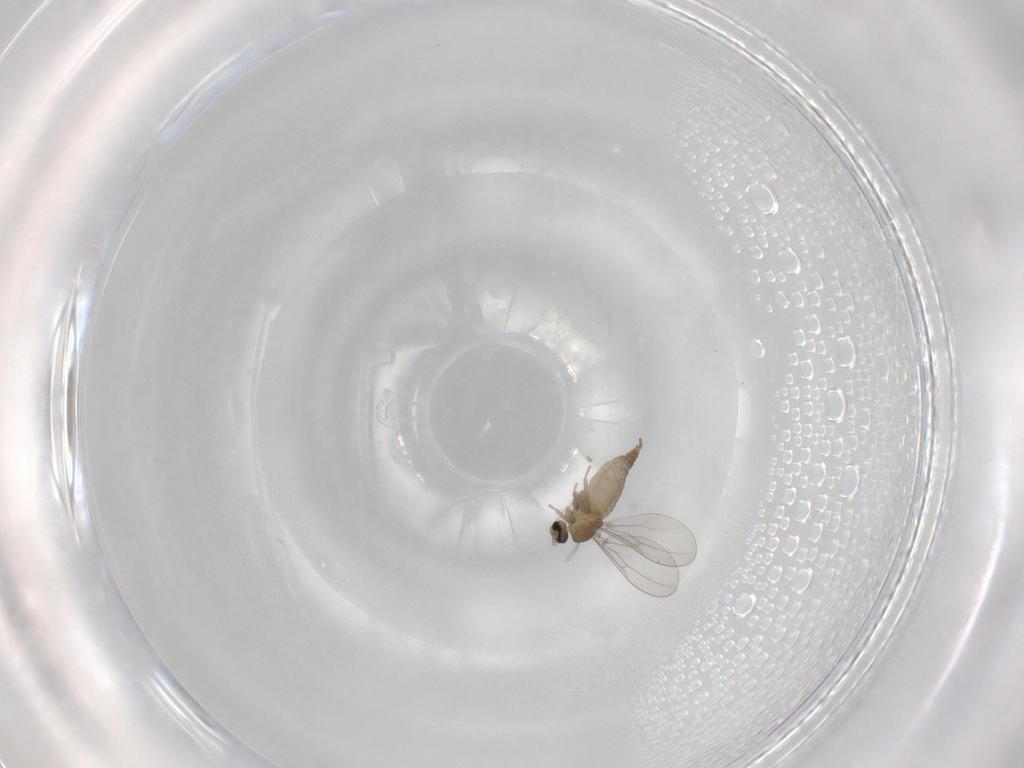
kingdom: Animalia
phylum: Arthropoda
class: Insecta
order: Diptera
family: Cecidomyiidae
